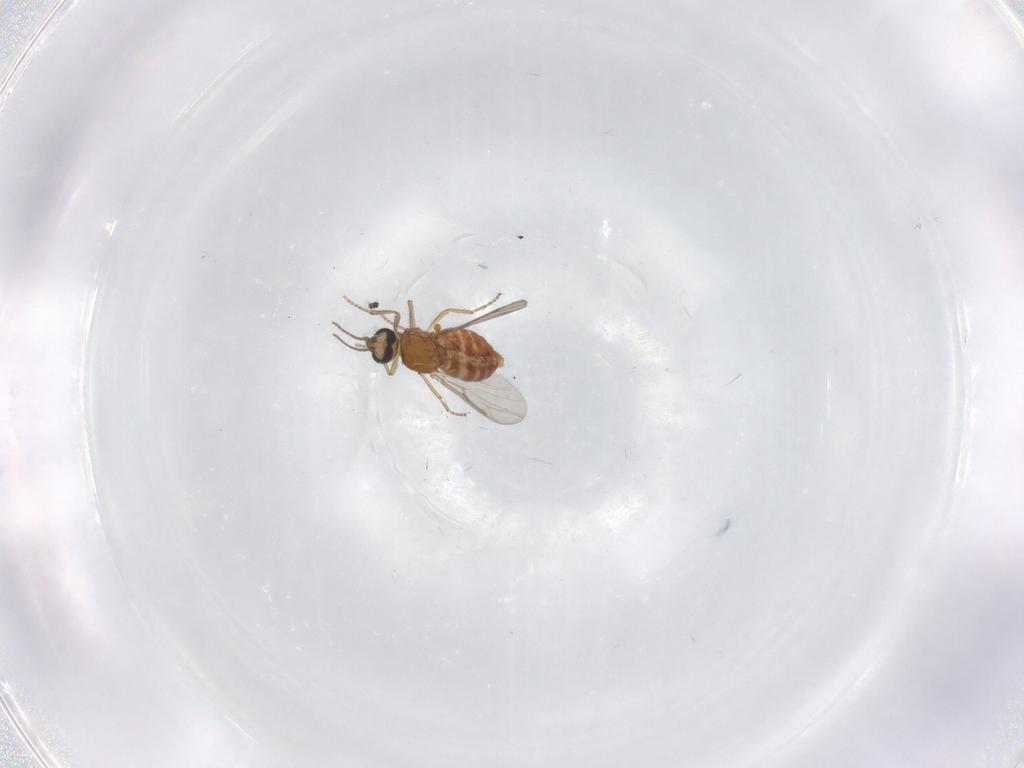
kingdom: Animalia
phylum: Arthropoda
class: Insecta
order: Diptera
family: Ceratopogonidae
